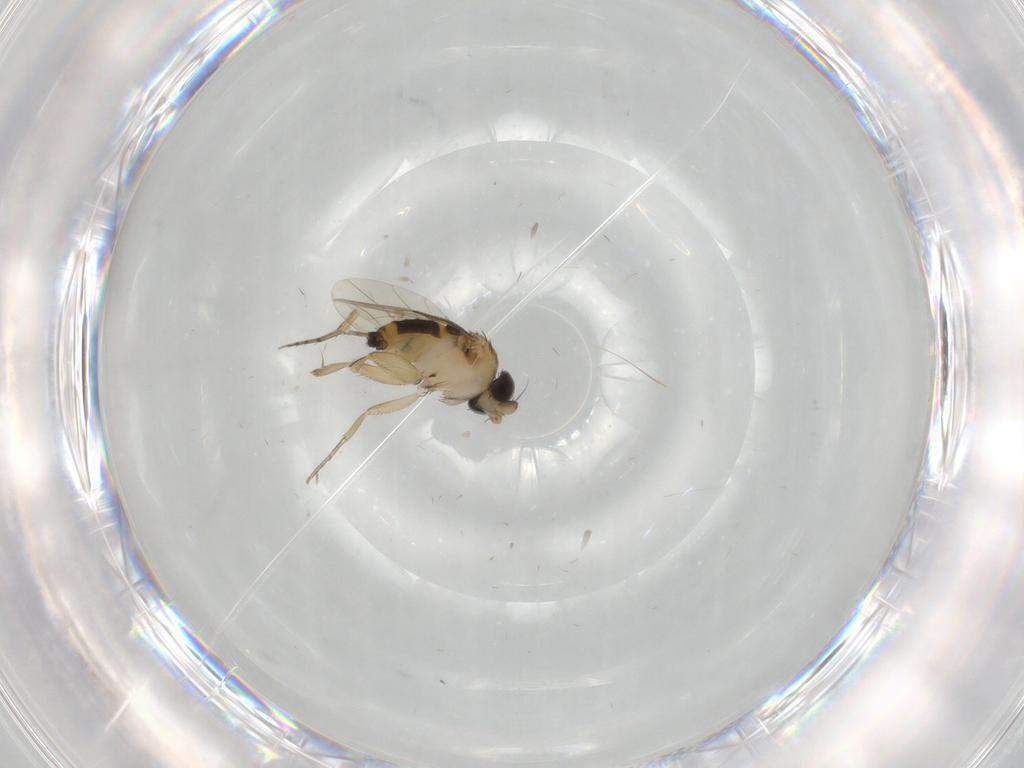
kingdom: Animalia
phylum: Arthropoda
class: Insecta
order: Diptera
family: Phoridae
